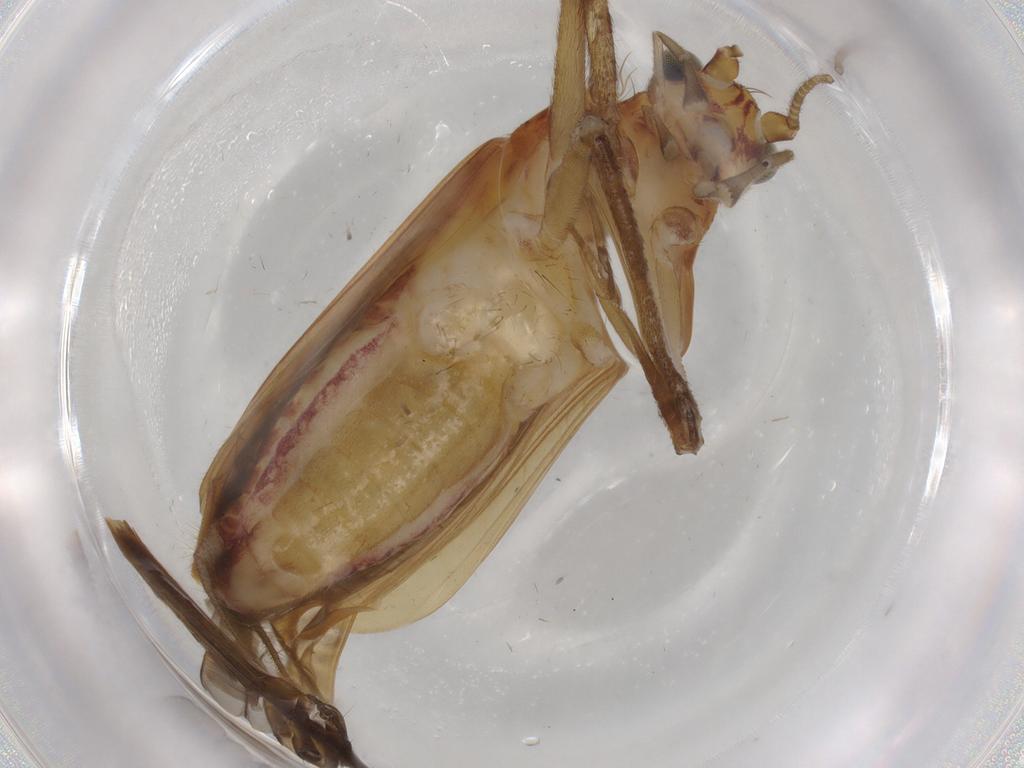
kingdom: Animalia
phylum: Arthropoda
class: Insecta
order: Orthoptera
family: Trigonidiidae
